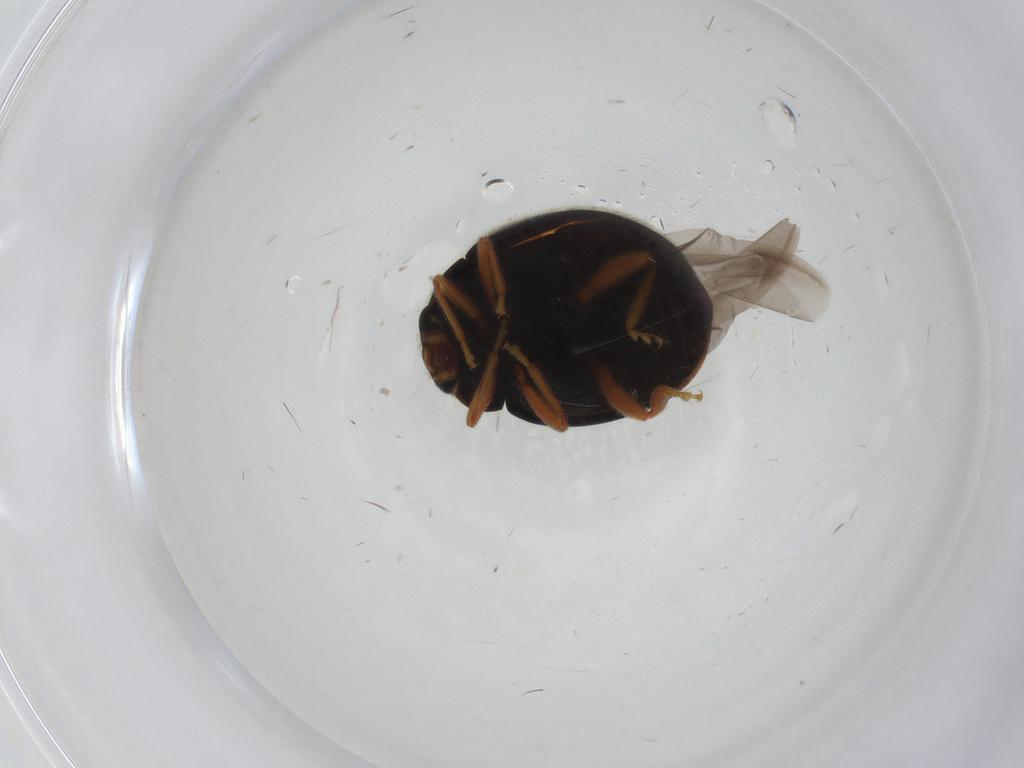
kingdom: Animalia
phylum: Arthropoda
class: Insecta
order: Coleoptera
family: Coccinellidae
